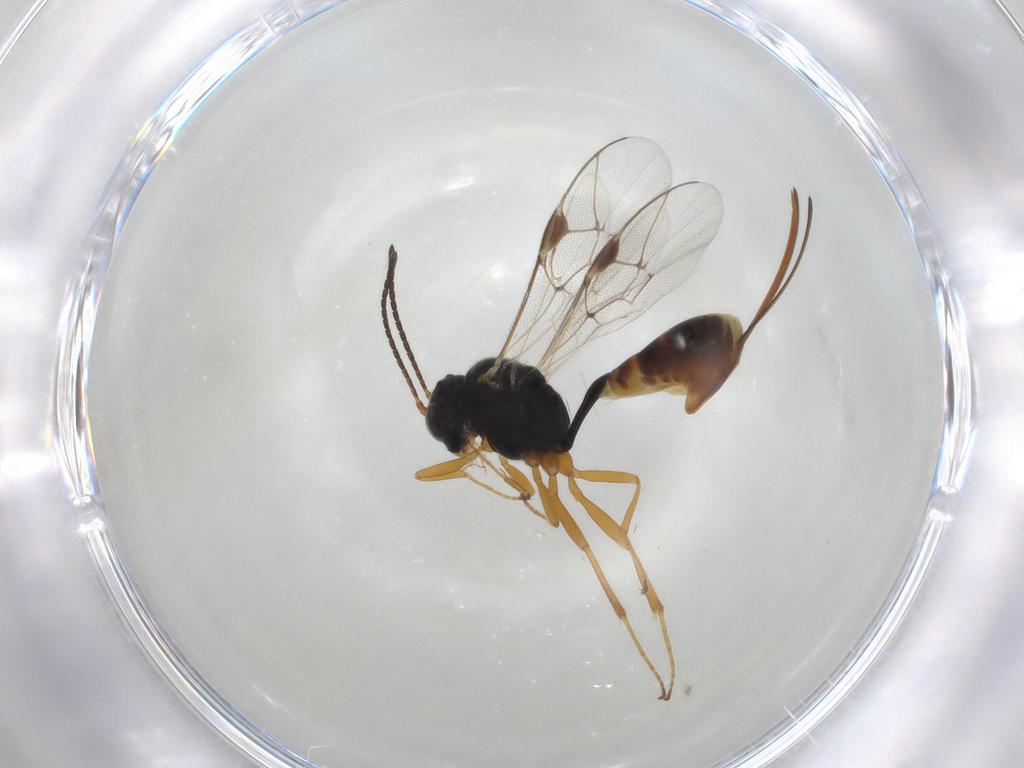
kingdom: Animalia
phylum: Arthropoda
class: Insecta
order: Hymenoptera
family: Ichneumonidae
